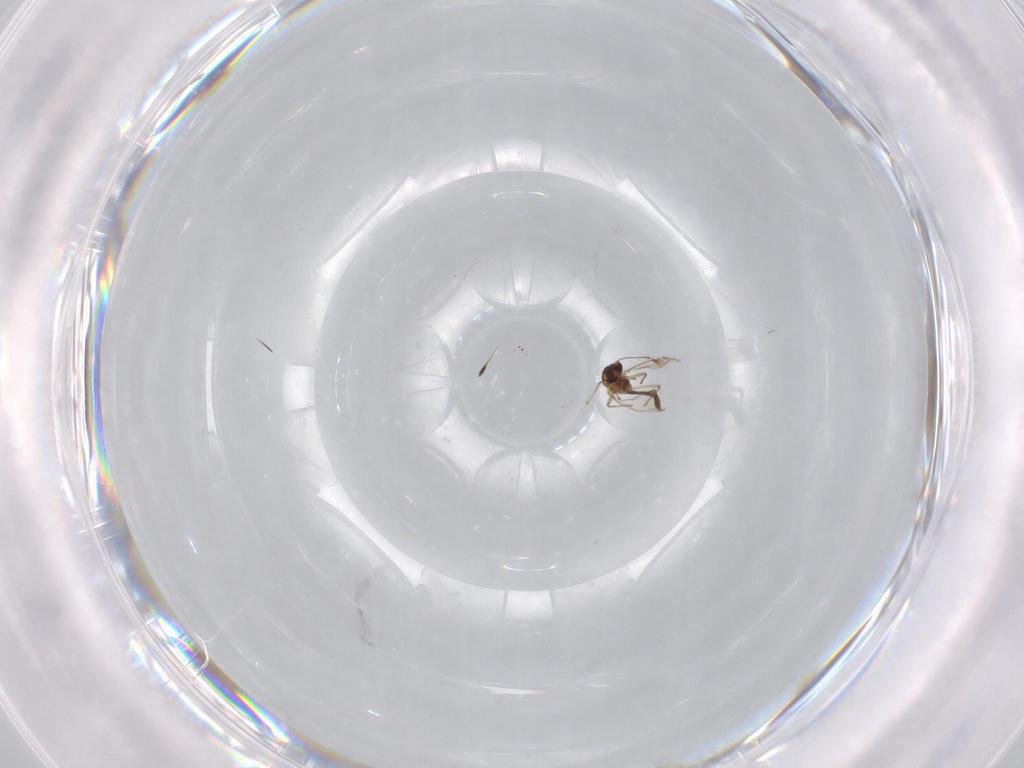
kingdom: Animalia
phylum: Arthropoda
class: Insecta
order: Diptera
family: Chironomidae
